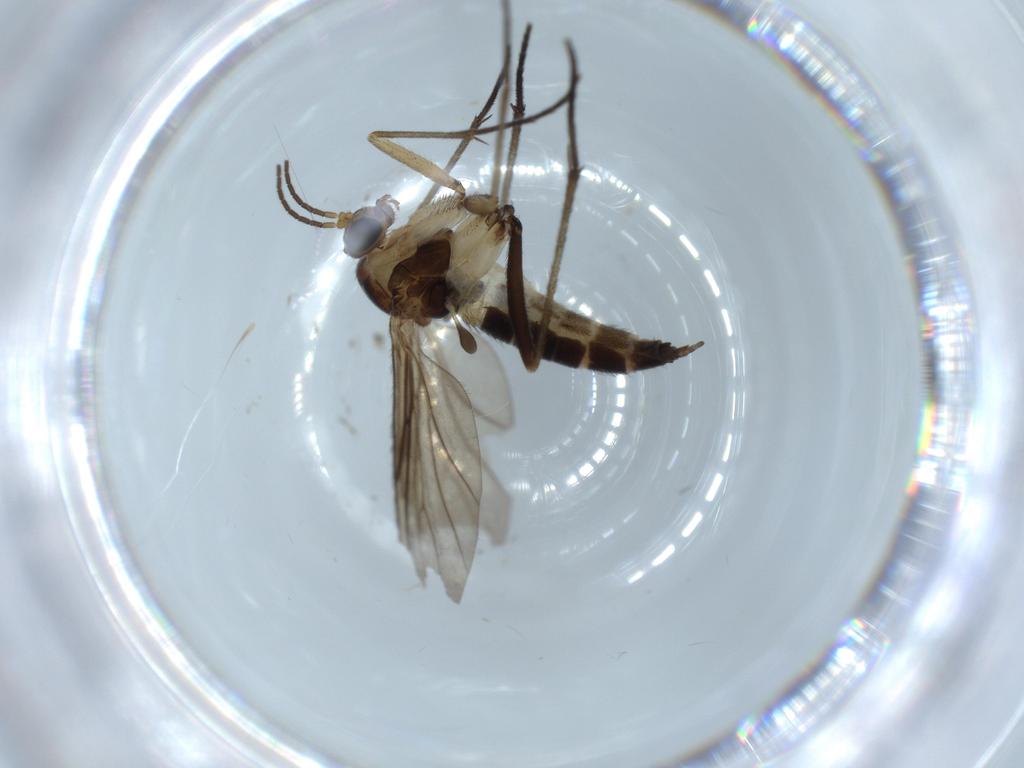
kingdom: Animalia
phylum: Arthropoda
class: Insecta
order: Diptera
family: Sciaridae
